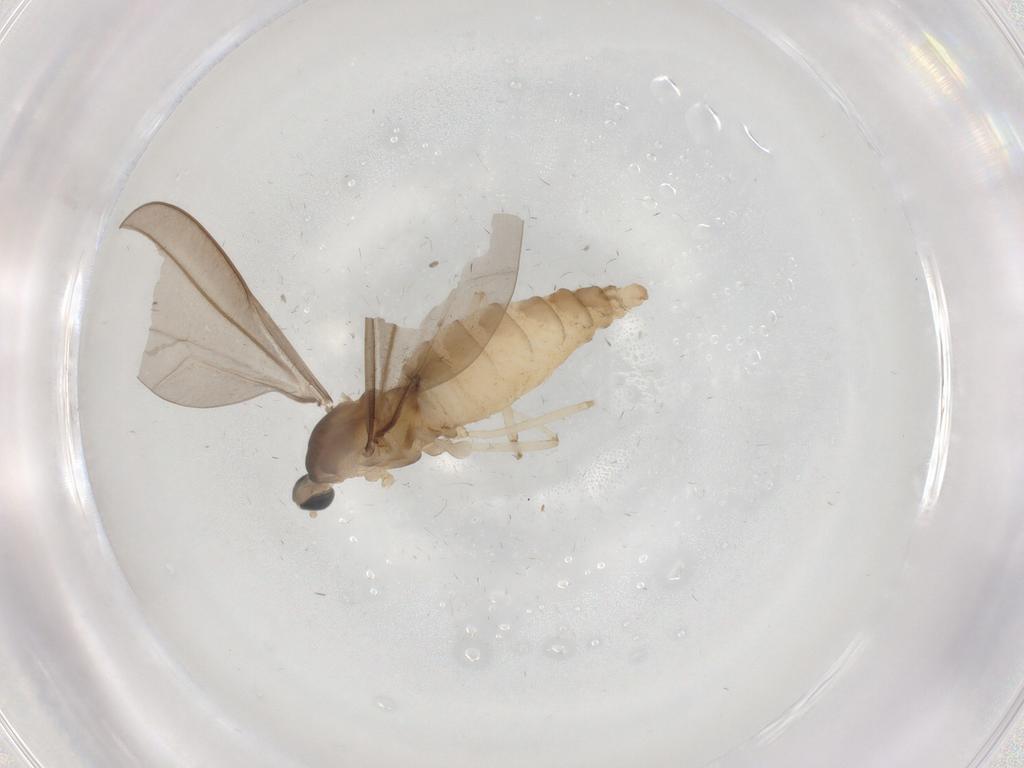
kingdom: Animalia
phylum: Arthropoda
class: Insecta
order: Diptera
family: Cecidomyiidae
